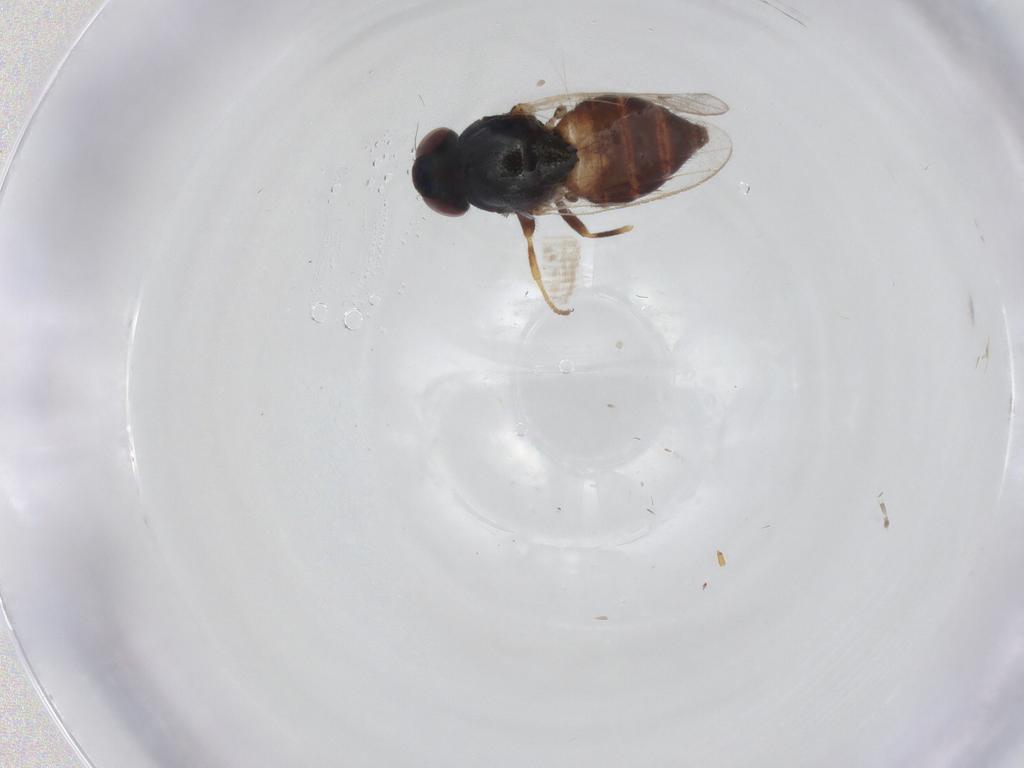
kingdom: Animalia
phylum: Arthropoda
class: Insecta
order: Diptera
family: Chloropidae
